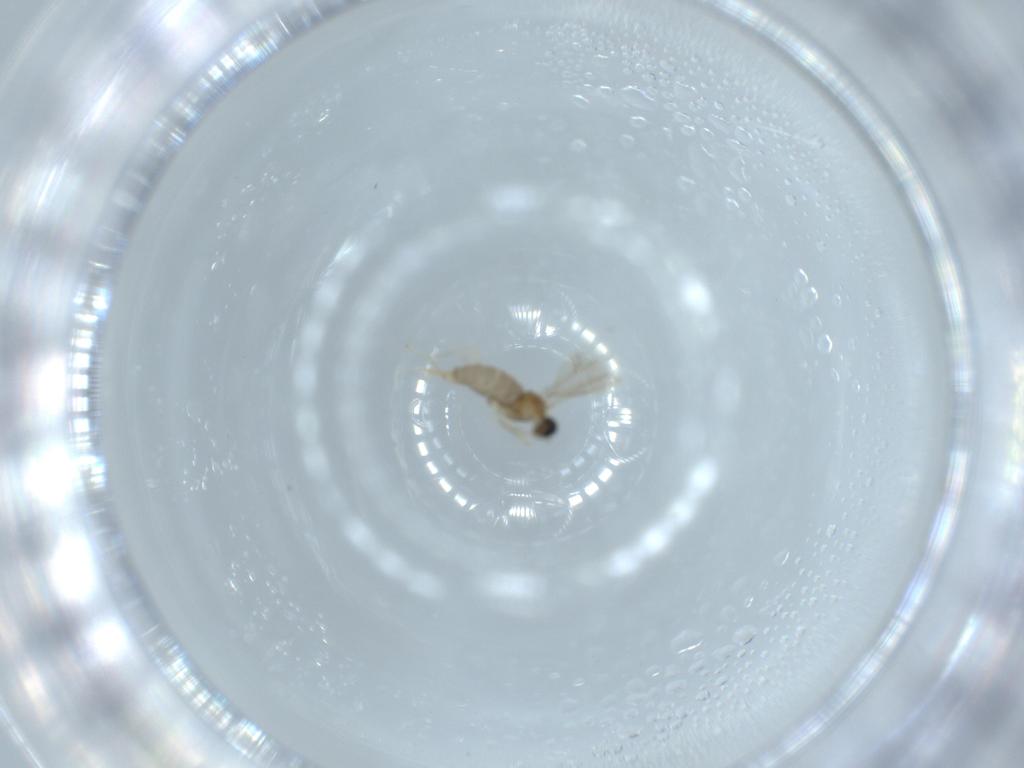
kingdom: Animalia
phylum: Arthropoda
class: Insecta
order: Diptera
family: Cecidomyiidae
